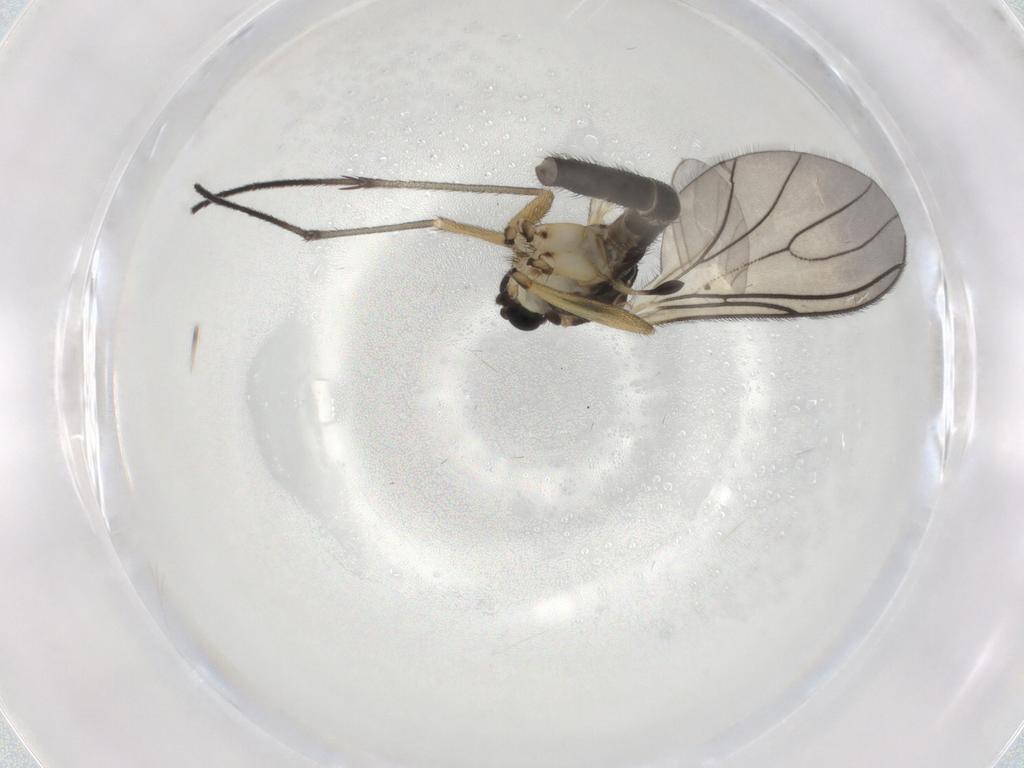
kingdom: Animalia
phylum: Arthropoda
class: Insecta
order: Diptera
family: Sciaridae
